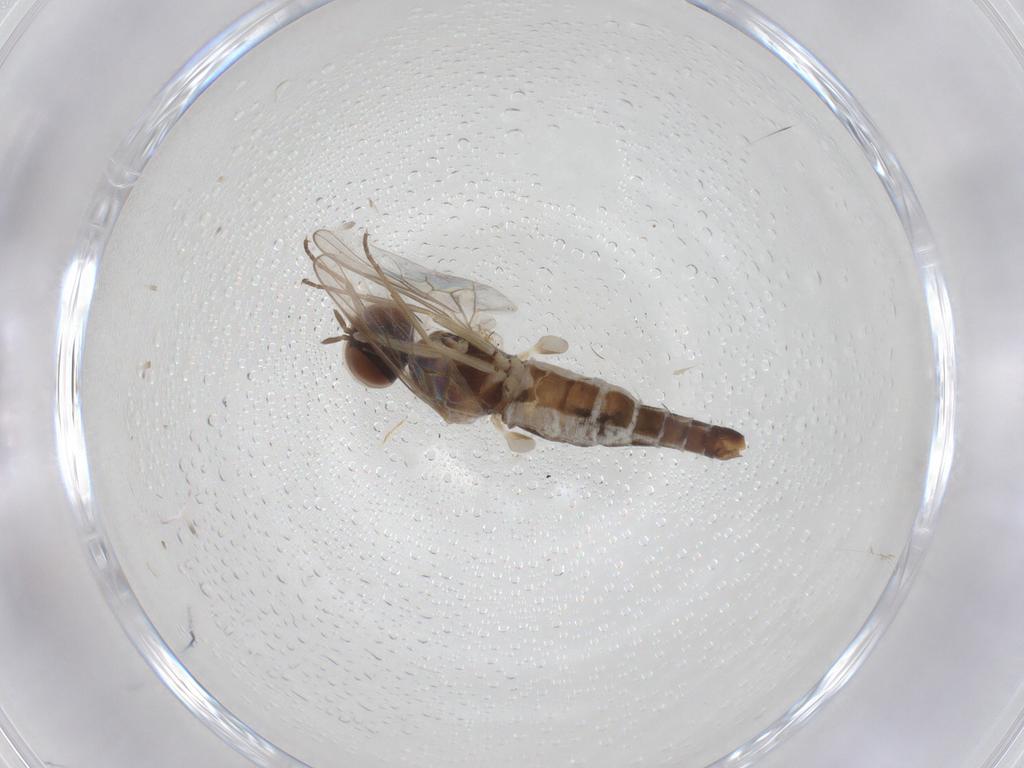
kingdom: Animalia
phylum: Arthropoda
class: Insecta
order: Diptera
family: Scenopinidae
